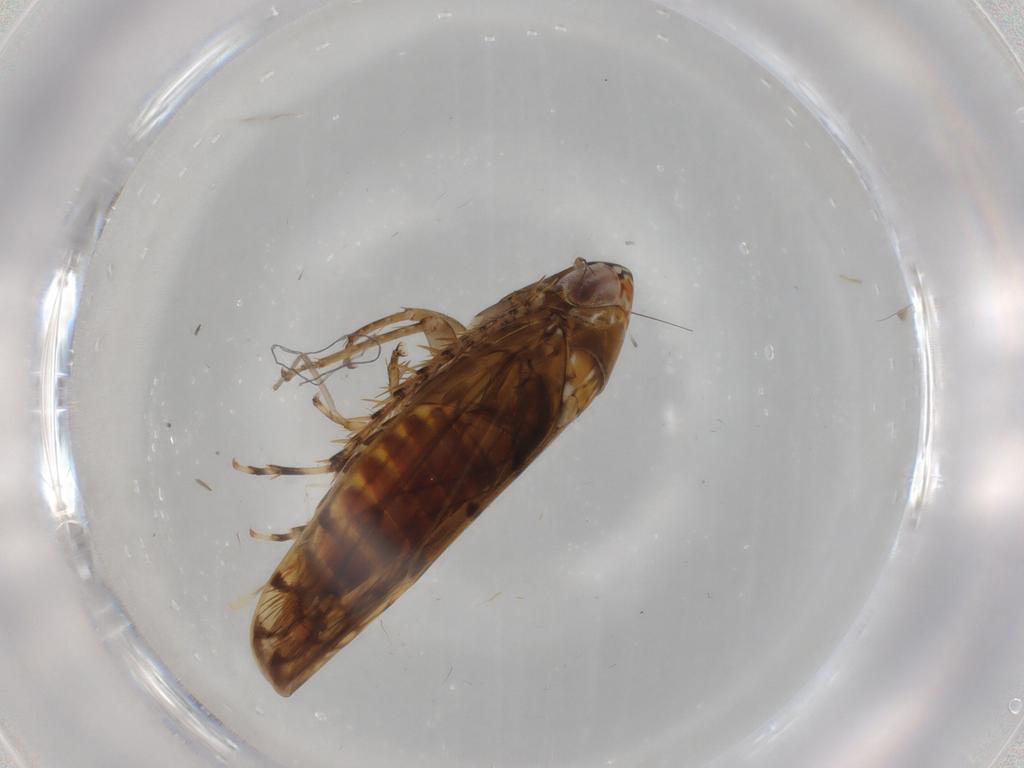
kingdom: Animalia
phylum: Arthropoda
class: Insecta
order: Hemiptera
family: Cicadellidae
